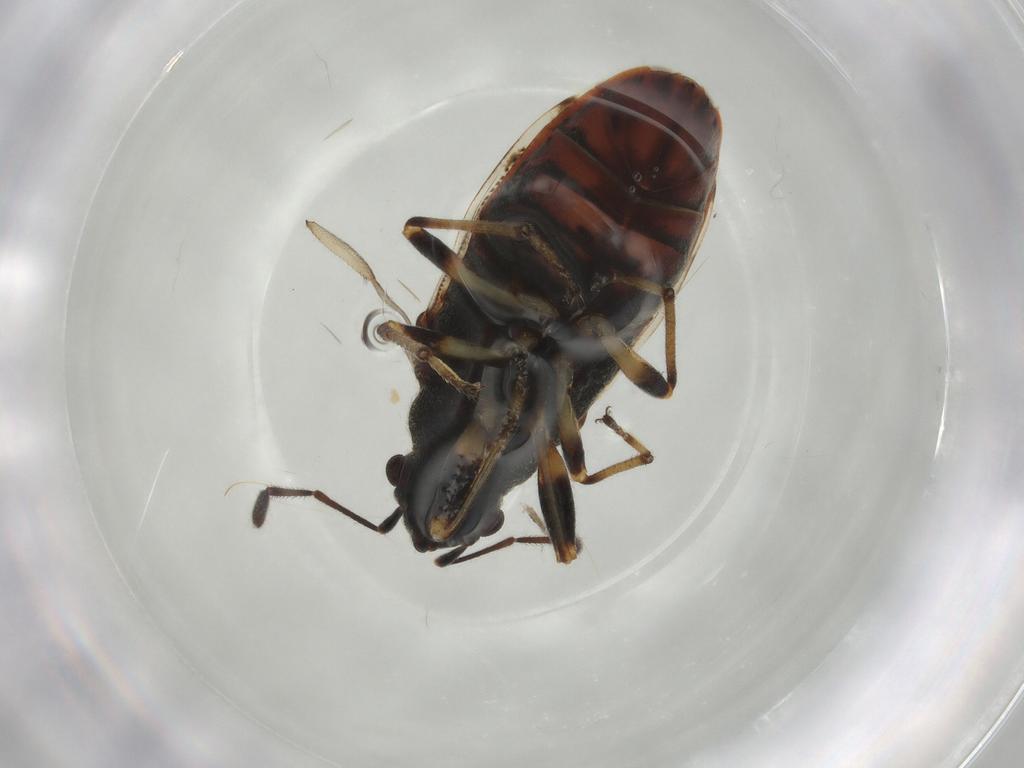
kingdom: Animalia
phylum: Arthropoda
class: Insecta
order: Hemiptera
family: Rhyparochromidae
